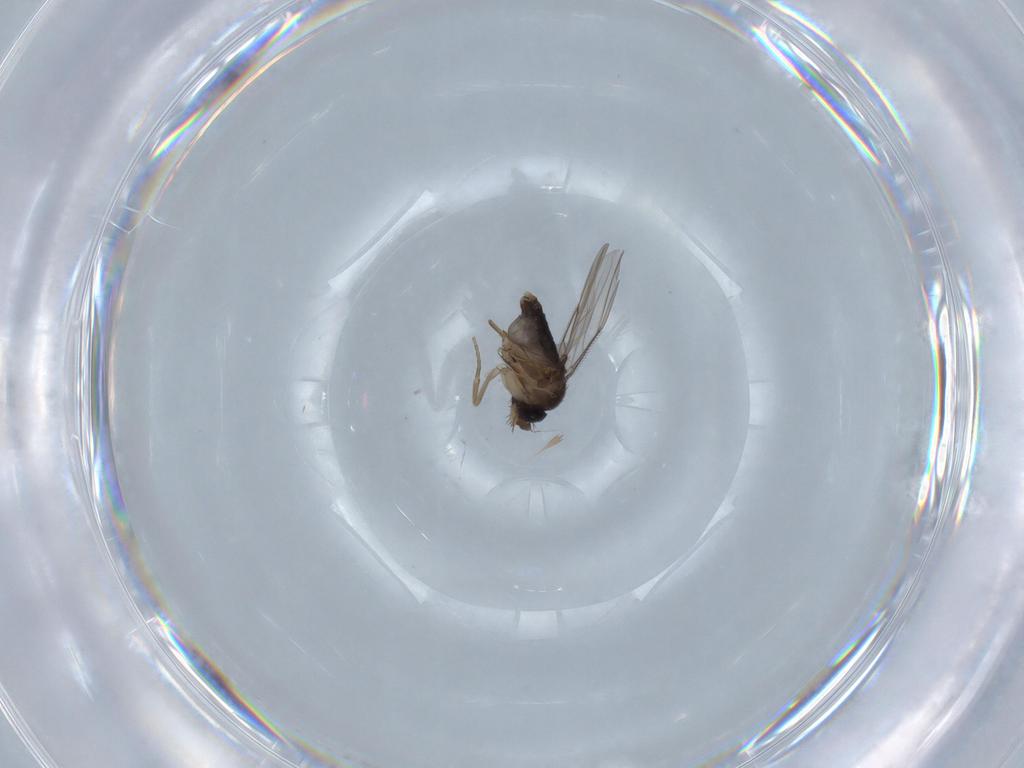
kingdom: Animalia
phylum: Arthropoda
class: Insecta
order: Diptera
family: Phoridae
